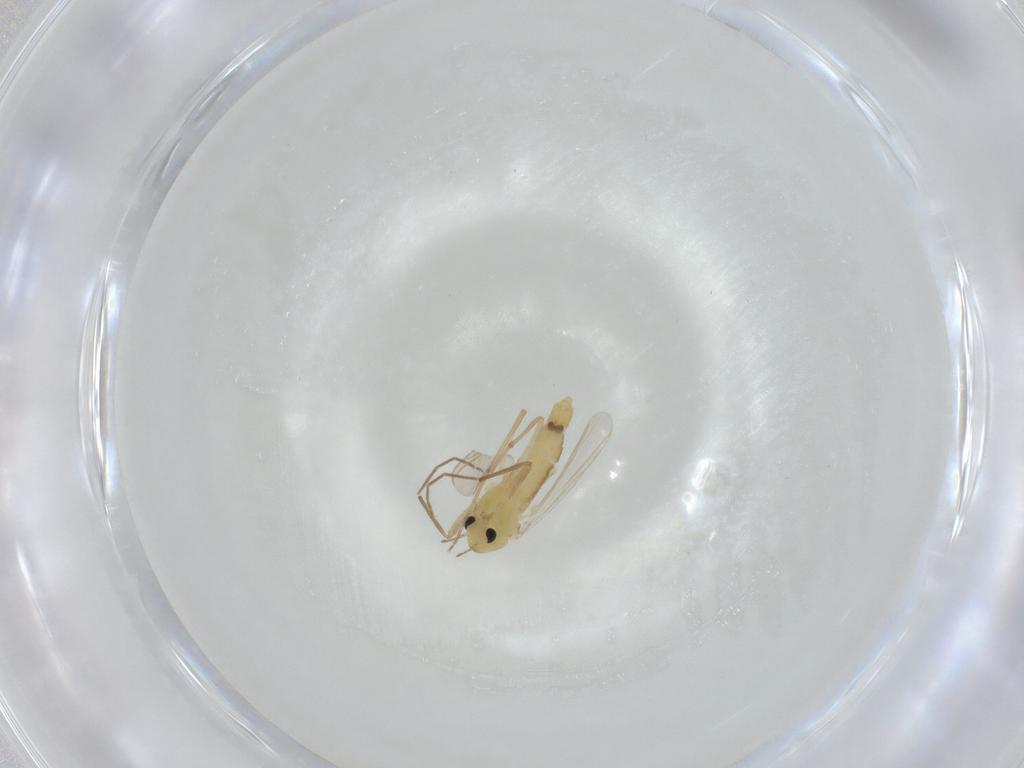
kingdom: Animalia
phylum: Arthropoda
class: Insecta
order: Diptera
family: Chironomidae
